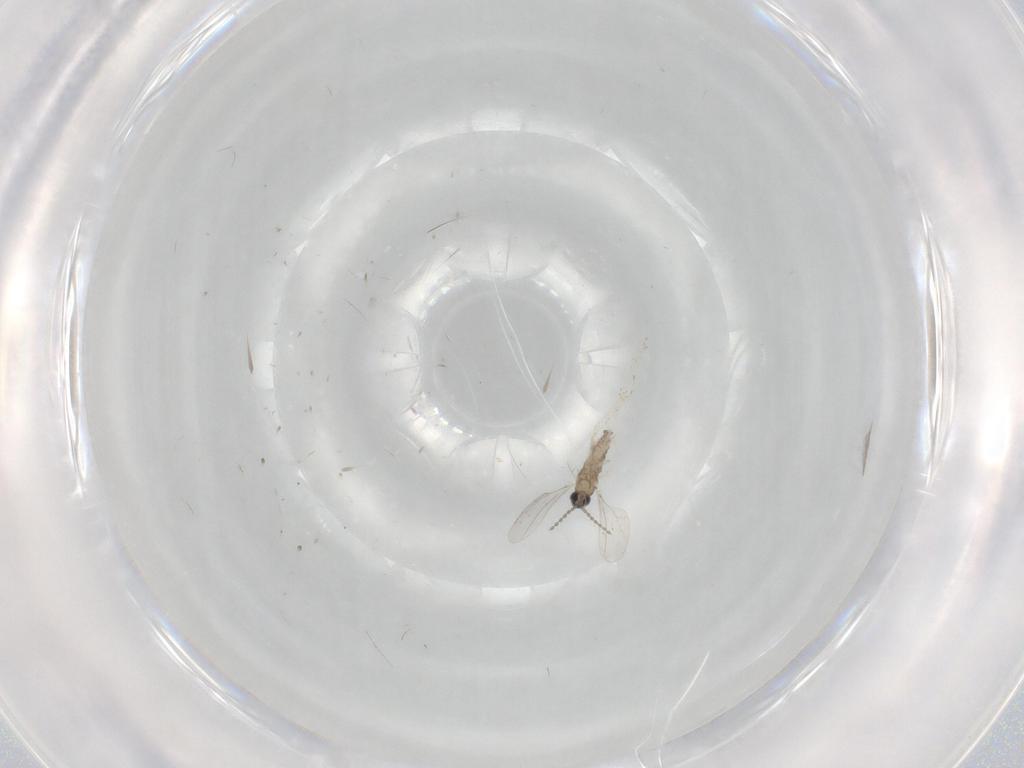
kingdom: Animalia
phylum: Arthropoda
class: Insecta
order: Diptera
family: Cecidomyiidae
